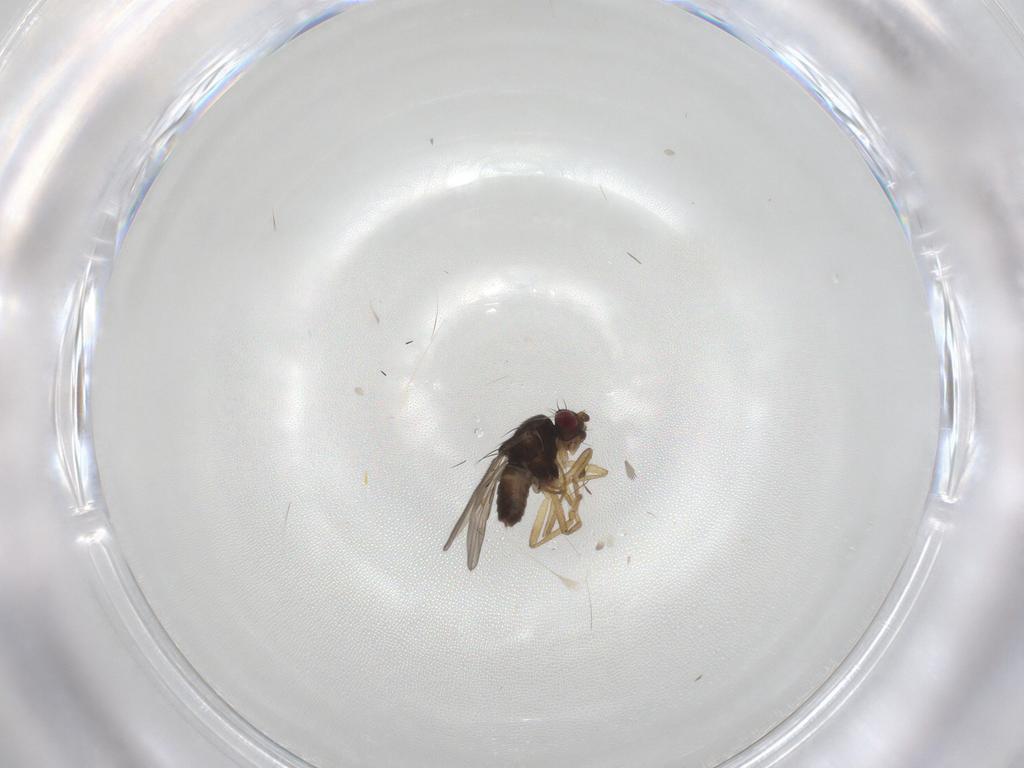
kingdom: Animalia
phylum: Arthropoda
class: Insecta
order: Diptera
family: Sphaeroceridae
